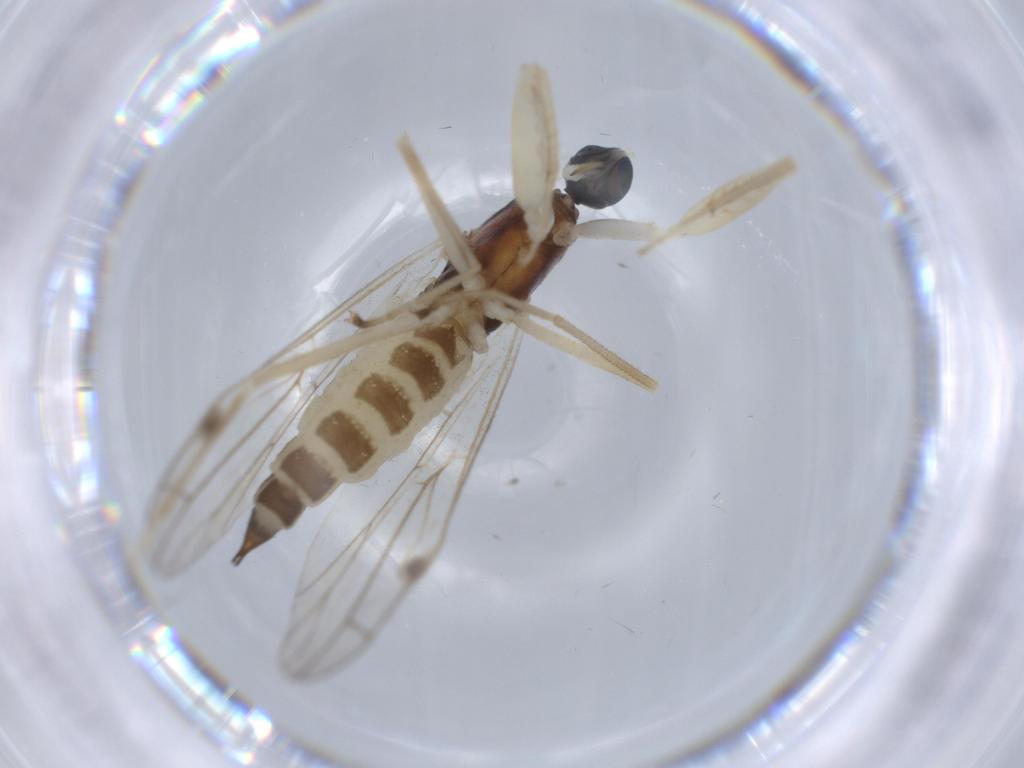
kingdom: Animalia
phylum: Arthropoda
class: Insecta
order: Diptera
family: Empididae
